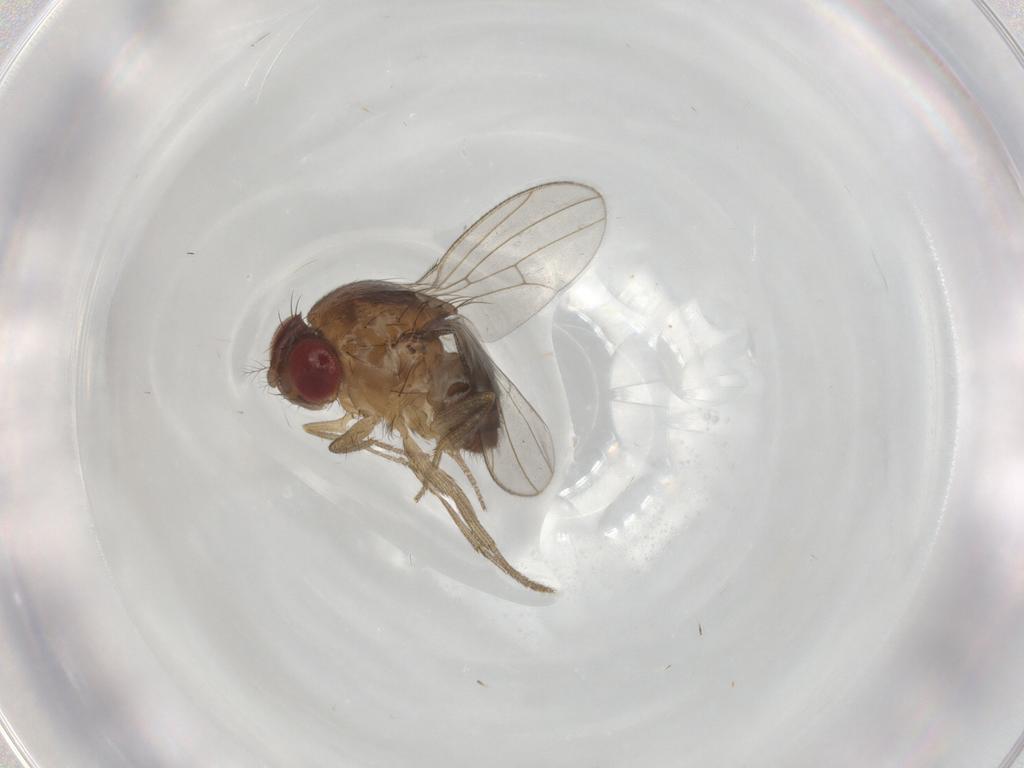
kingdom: Animalia
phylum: Arthropoda
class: Insecta
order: Diptera
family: Drosophilidae
